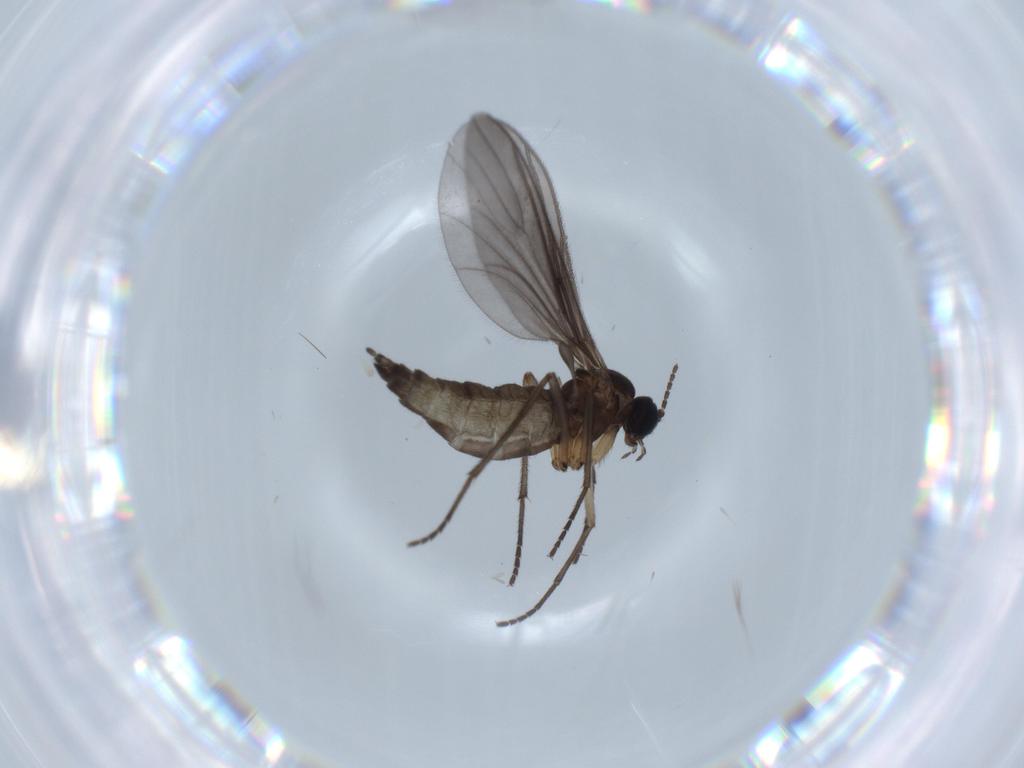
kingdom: Animalia
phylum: Arthropoda
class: Insecta
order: Diptera
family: Sciaridae
